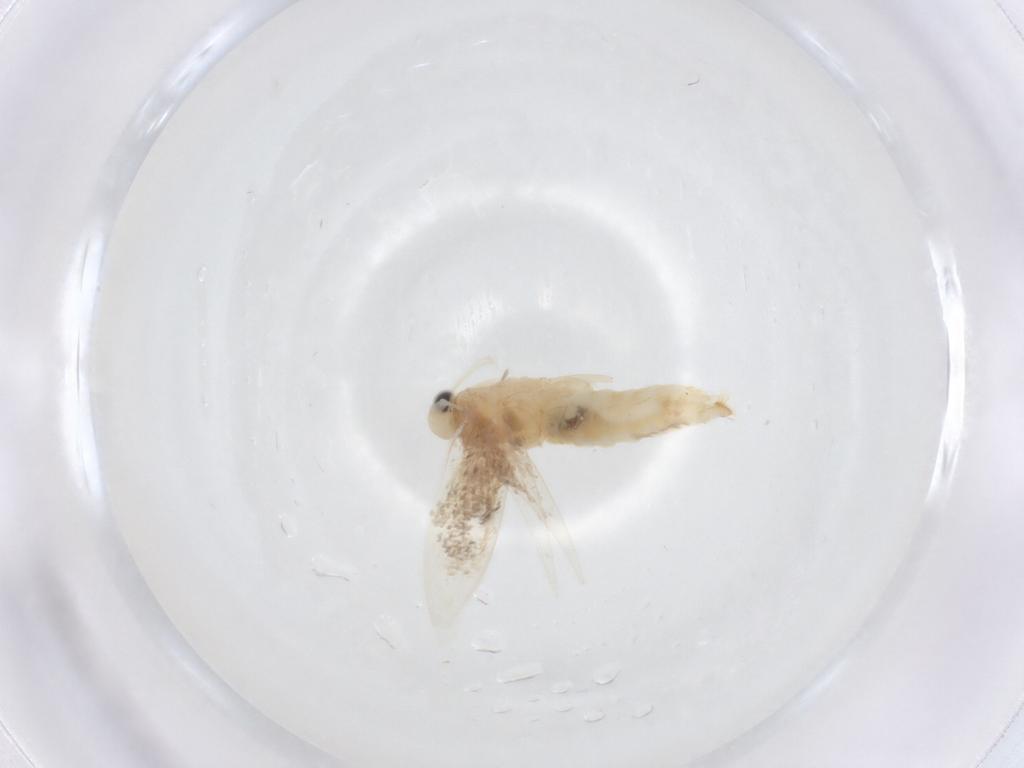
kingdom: Animalia
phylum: Arthropoda
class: Insecta
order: Lepidoptera
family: Gracillariidae
